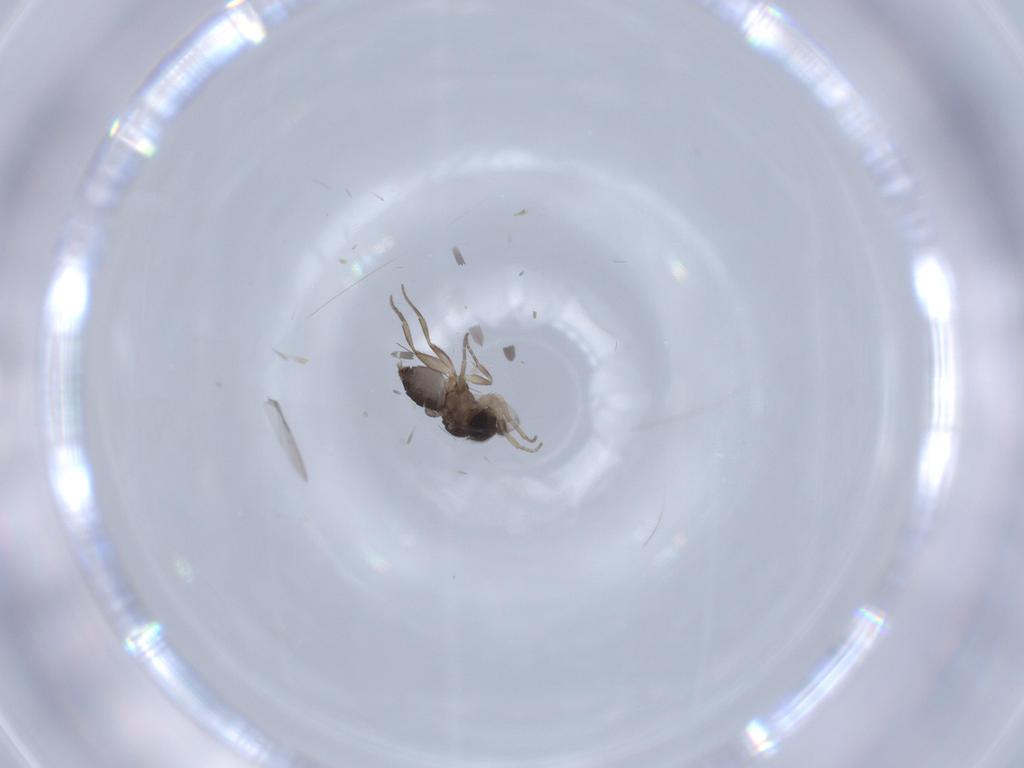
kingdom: Animalia
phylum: Arthropoda
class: Insecta
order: Diptera
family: Phoridae
